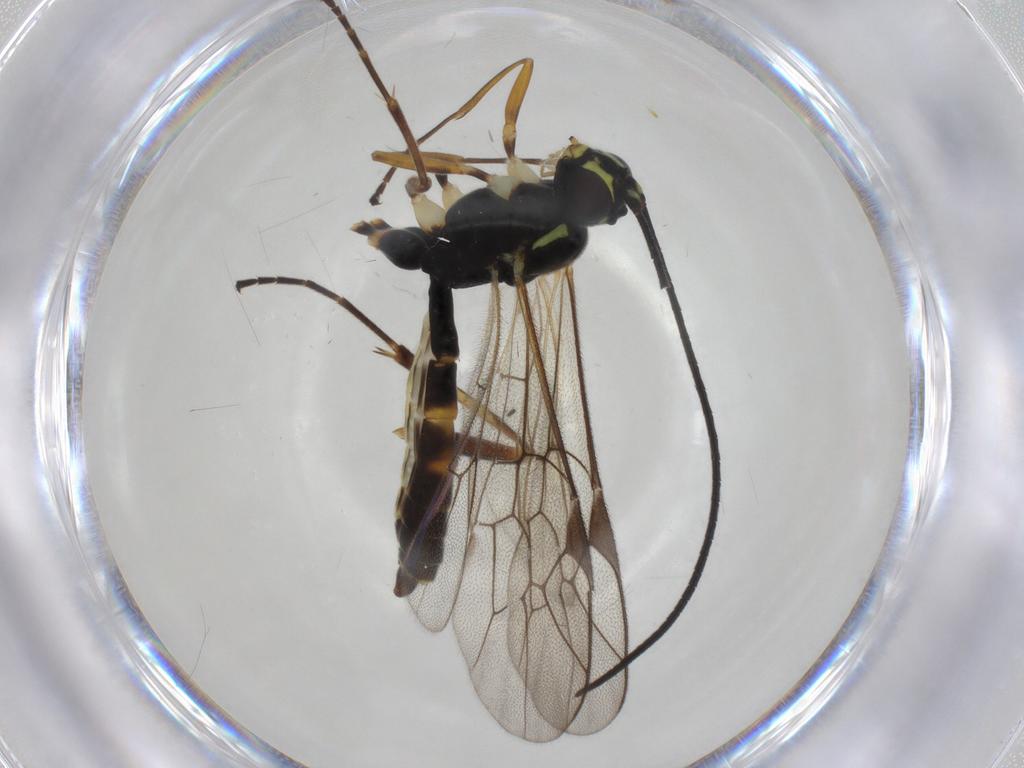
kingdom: Animalia
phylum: Arthropoda
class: Insecta
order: Hymenoptera
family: Ichneumonidae
